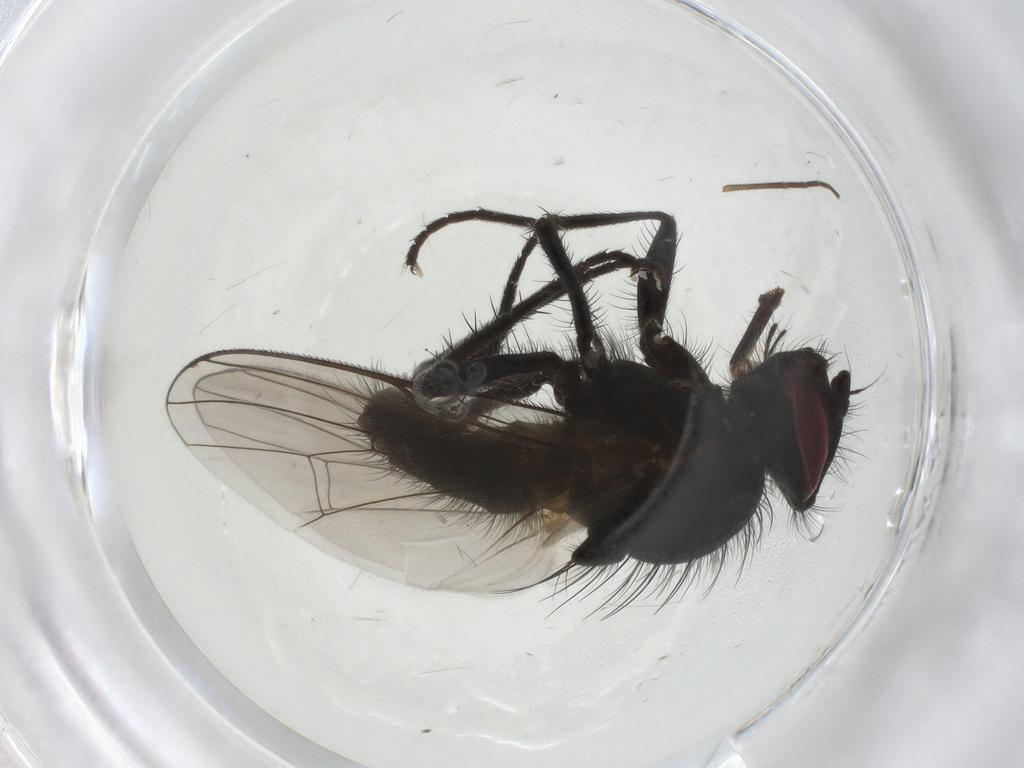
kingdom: Animalia
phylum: Arthropoda
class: Insecta
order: Diptera
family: Anthomyiidae
